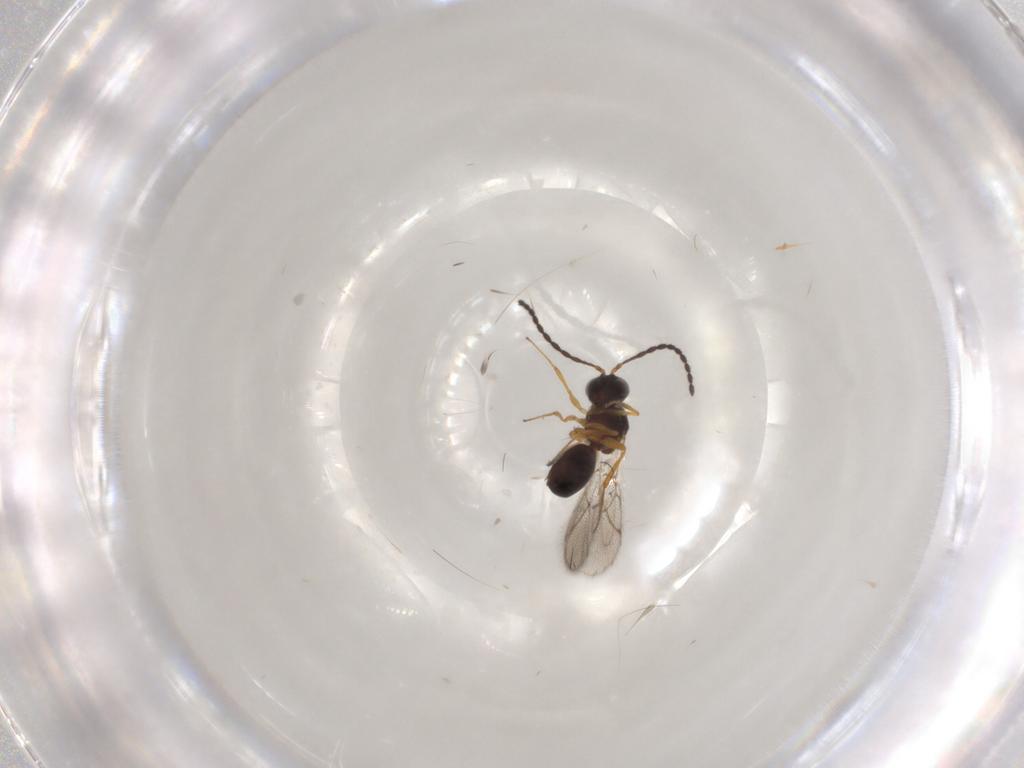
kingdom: Animalia
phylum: Arthropoda
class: Insecta
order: Hymenoptera
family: Figitidae
